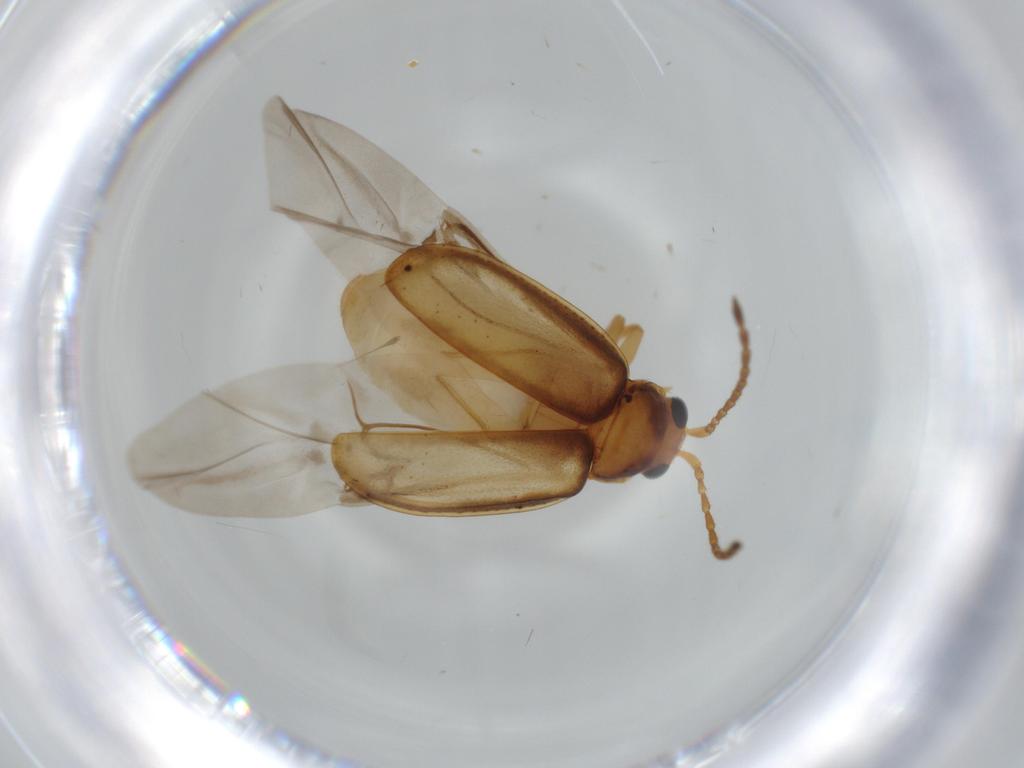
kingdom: Animalia
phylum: Arthropoda
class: Insecta
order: Coleoptera
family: Chrysomelidae
